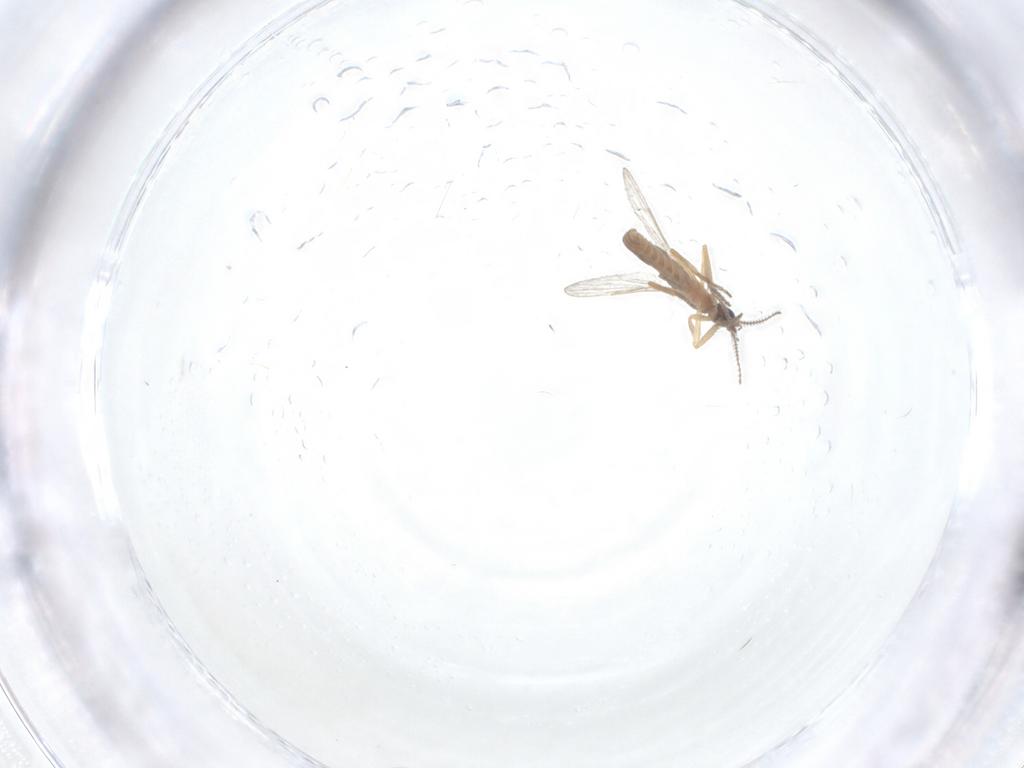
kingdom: Animalia
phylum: Arthropoda
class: Insecta
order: Diptera
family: Ceratopogonidae
